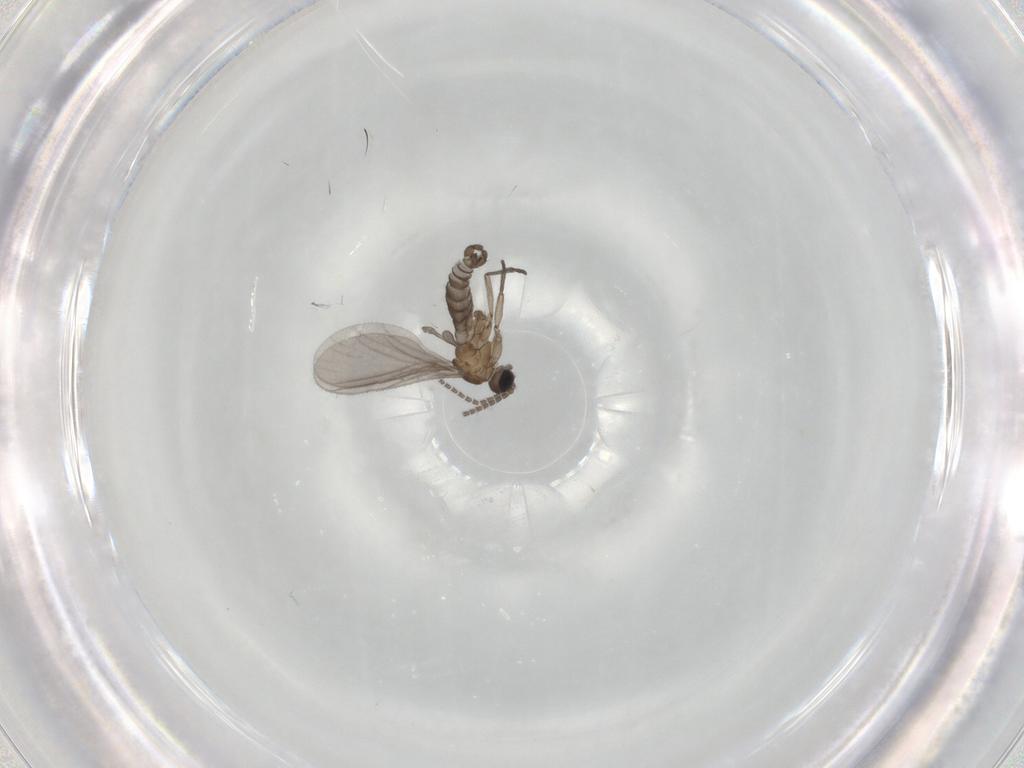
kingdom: Animalia
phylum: Arthropoda
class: Insecta
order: Diptera
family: Sciaridae
